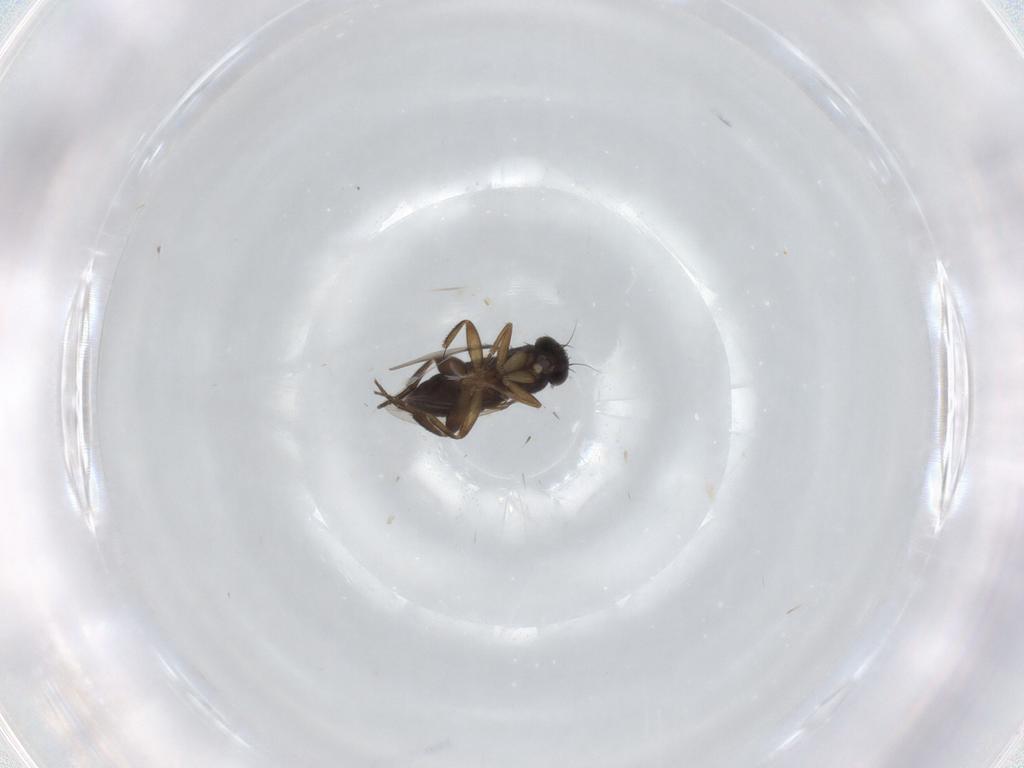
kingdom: Animalia
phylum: Arthropoda
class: Insecta
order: Diptera
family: Phoridae
